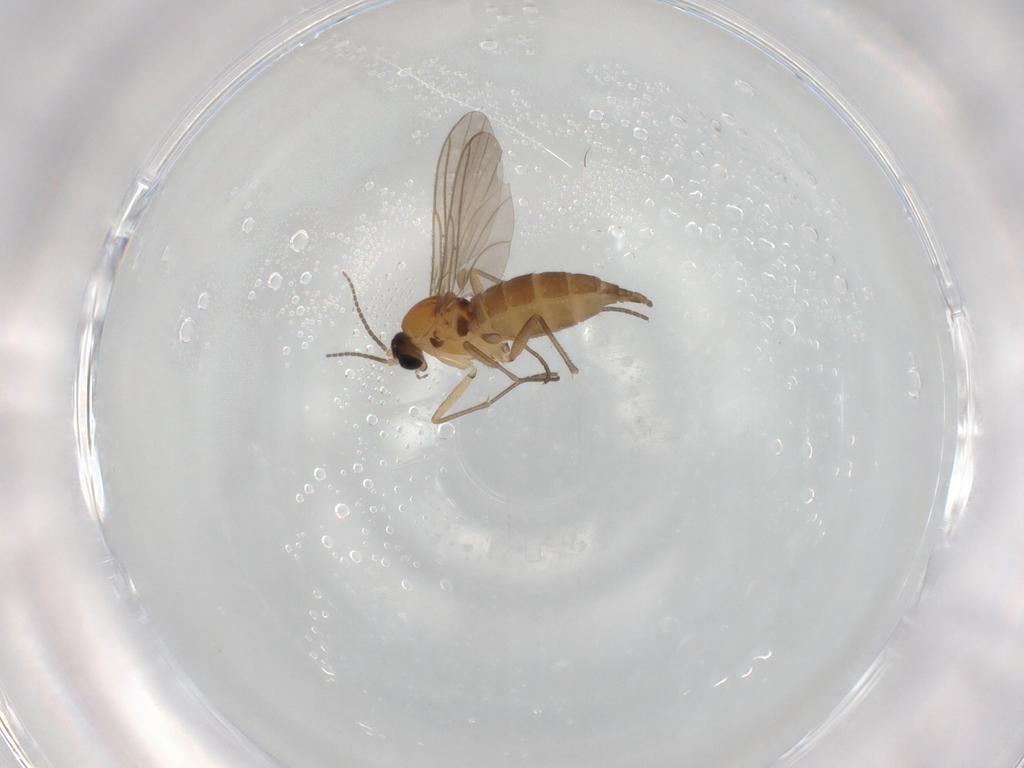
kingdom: Animalia
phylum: Arthropoda
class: Insecta
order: Diptera
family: Sciaridae
